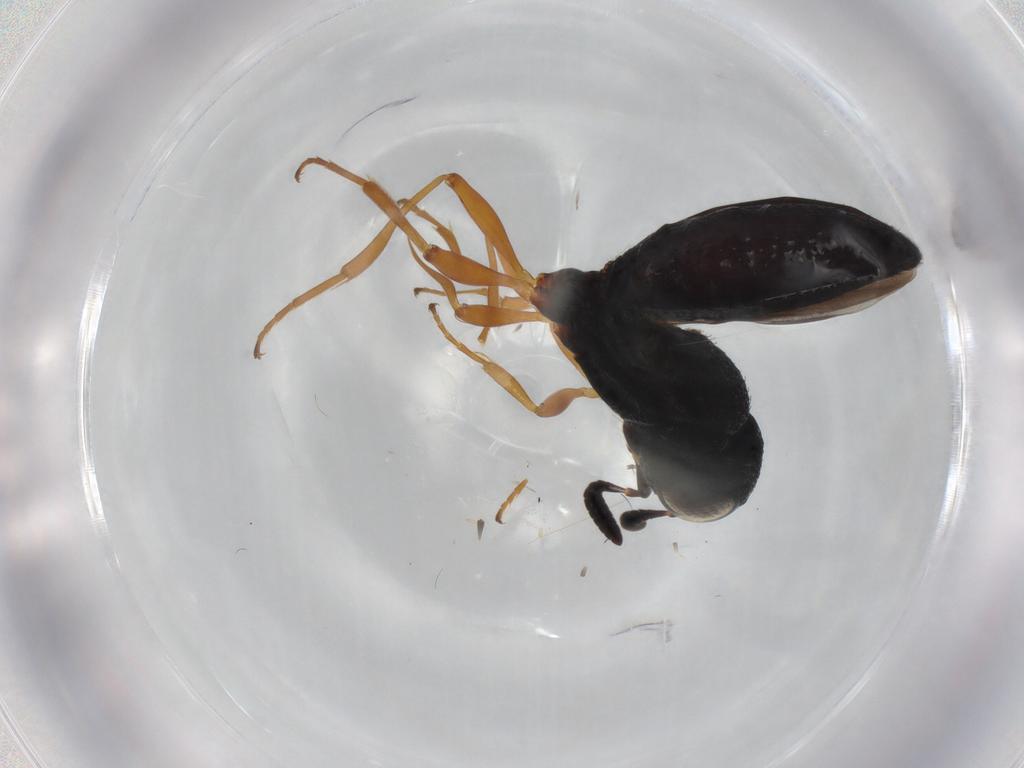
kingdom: Animalia
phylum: Arthropoda
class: Insecta
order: Hymenoptera
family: Scelionidae
